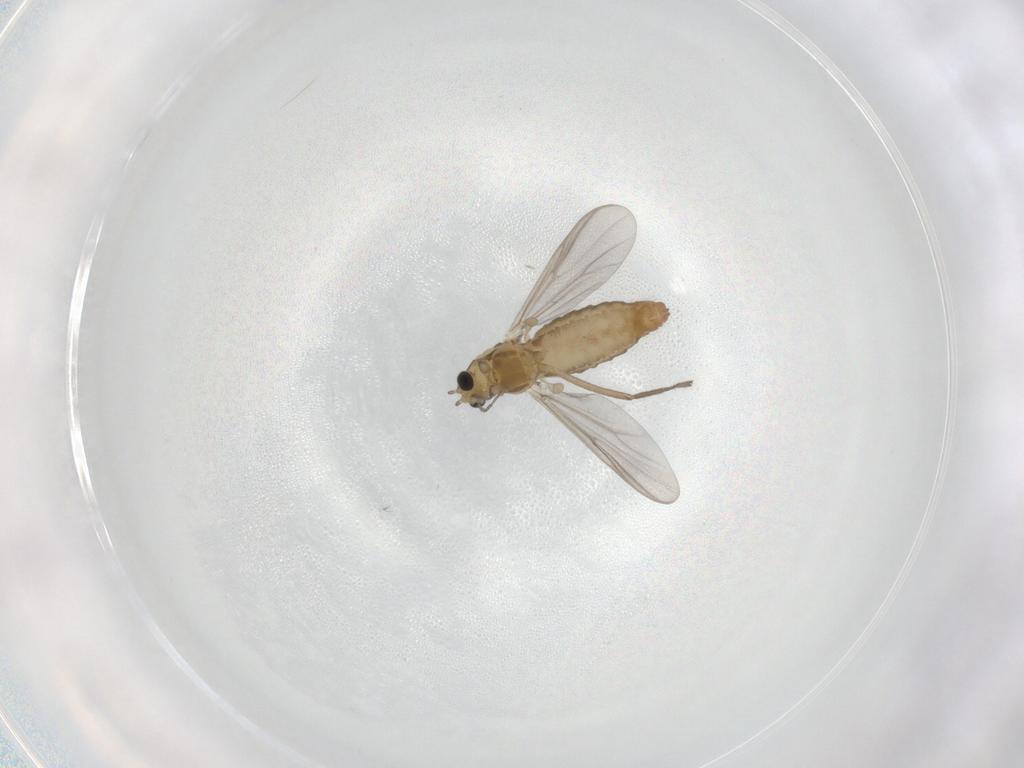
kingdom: Animalia
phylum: Arthropoda
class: Insecta
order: Diptera
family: Chironomidae
